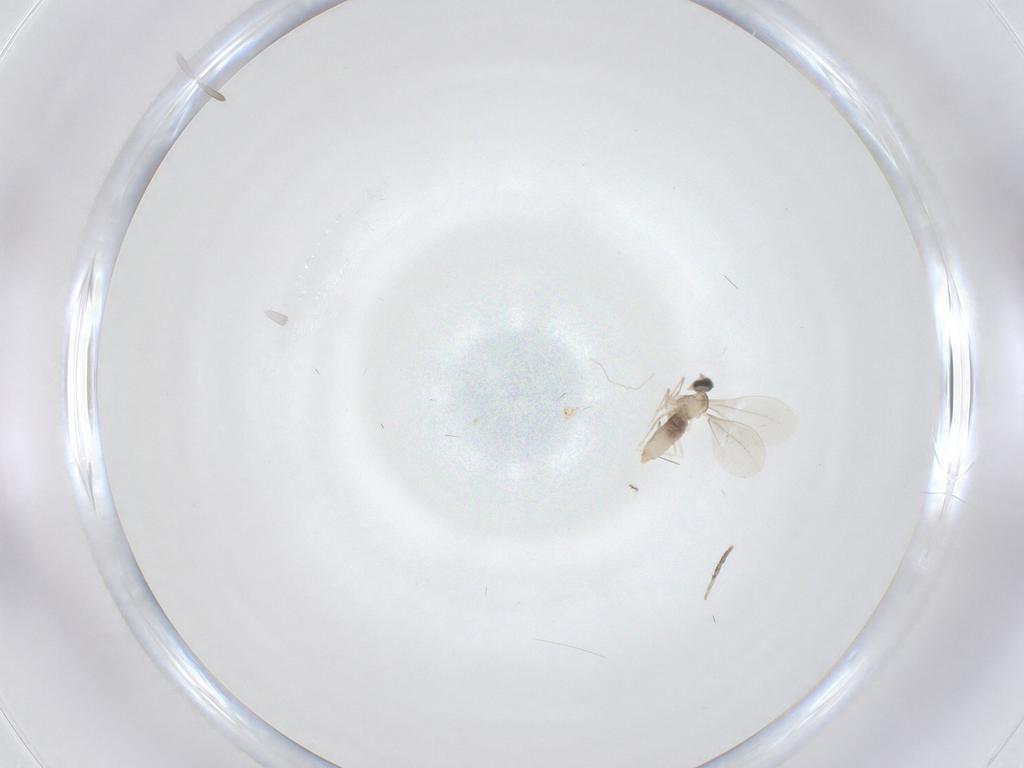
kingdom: Animalia
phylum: Arthropoda
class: Insecta
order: Diptera
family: Cecidomyiidae
